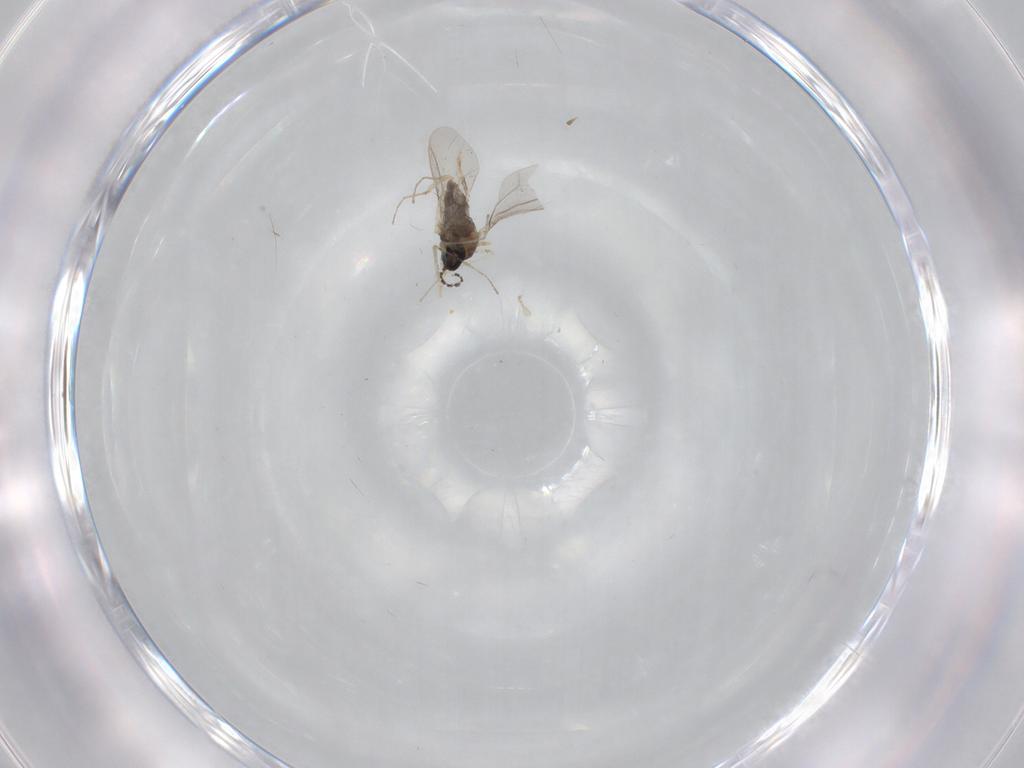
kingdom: Animalia
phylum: Arthropoda
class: Insecta
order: Diptera
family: Cecidomyiidae
